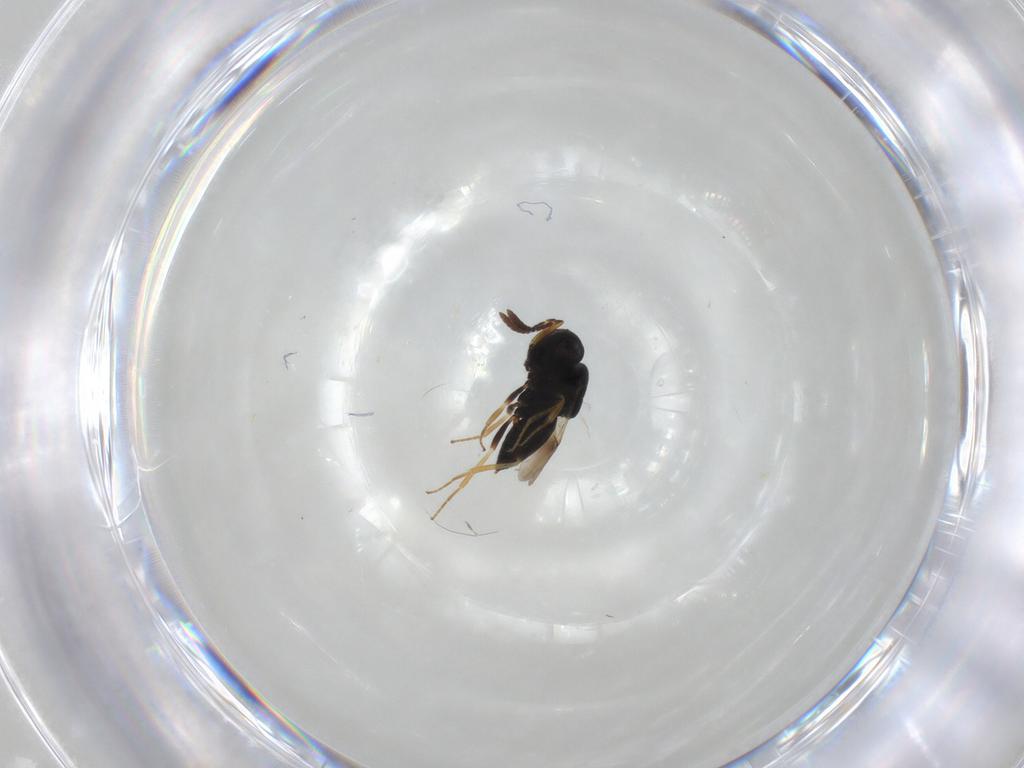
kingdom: Animalia
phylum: Arthropoda
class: Insecta
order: Hymenoptera
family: Scelionidae
